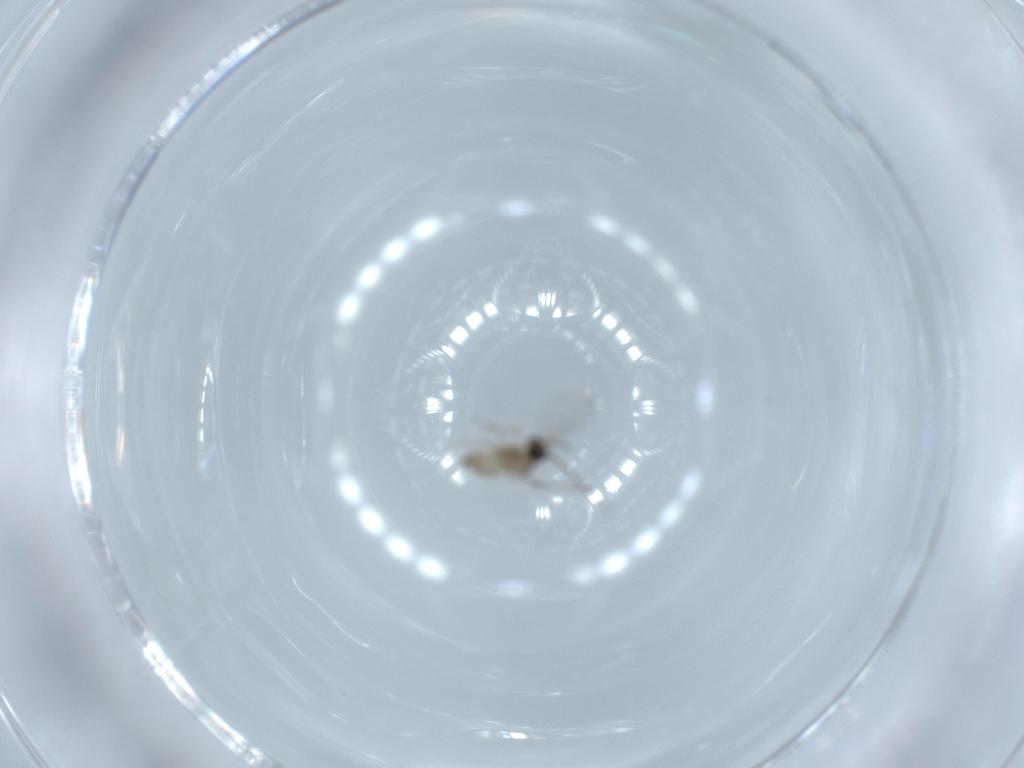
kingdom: Animalia
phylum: Arthropoda
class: Insecta
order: Diptera
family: Cecidomyiidae
